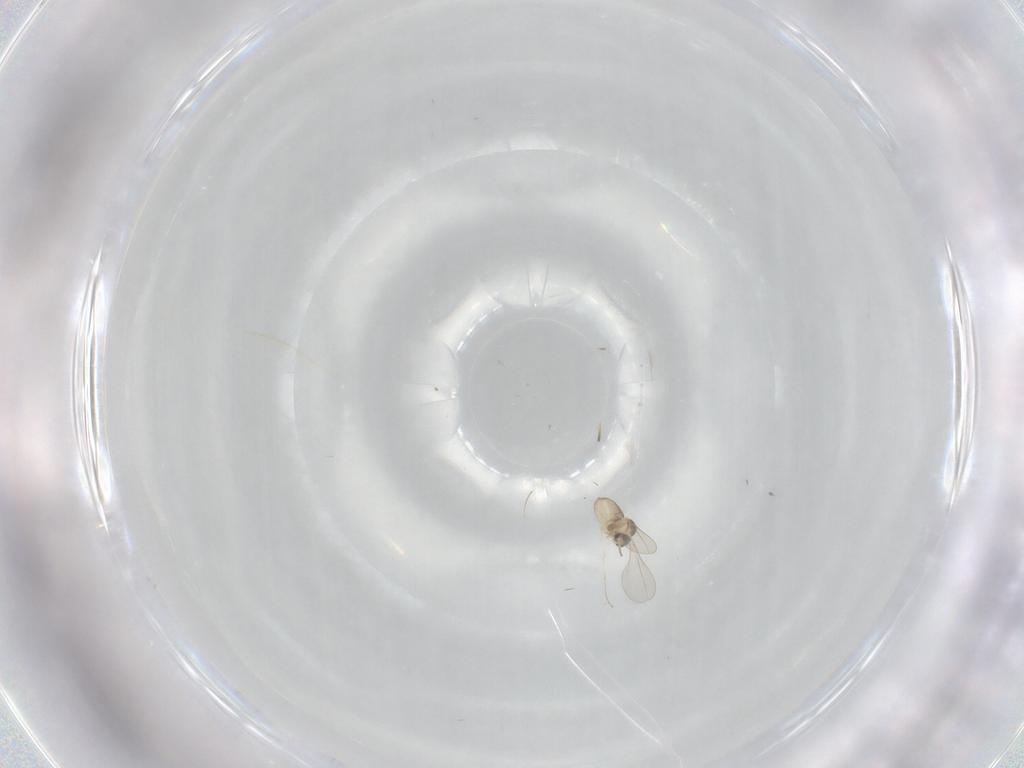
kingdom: Animalia
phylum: Arthropoda
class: Insecta
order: Diptera
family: Cecidomyiidae
